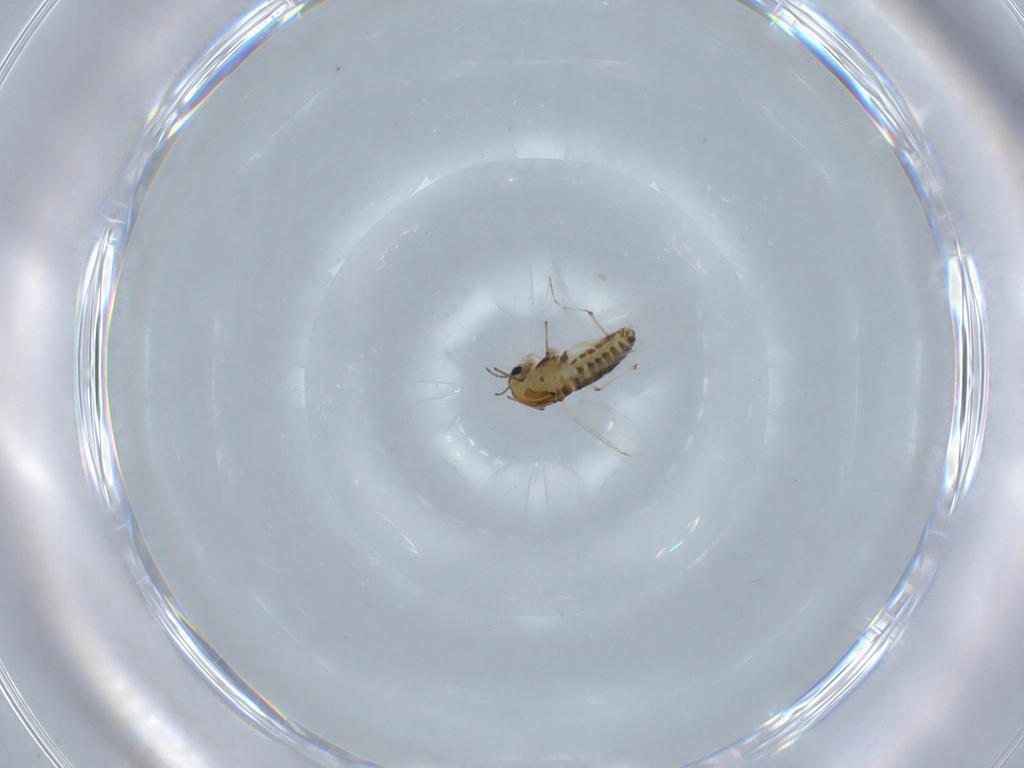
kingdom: Animalia
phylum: Arthropoda
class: Insecta
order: Diptera
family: Chironomidae
